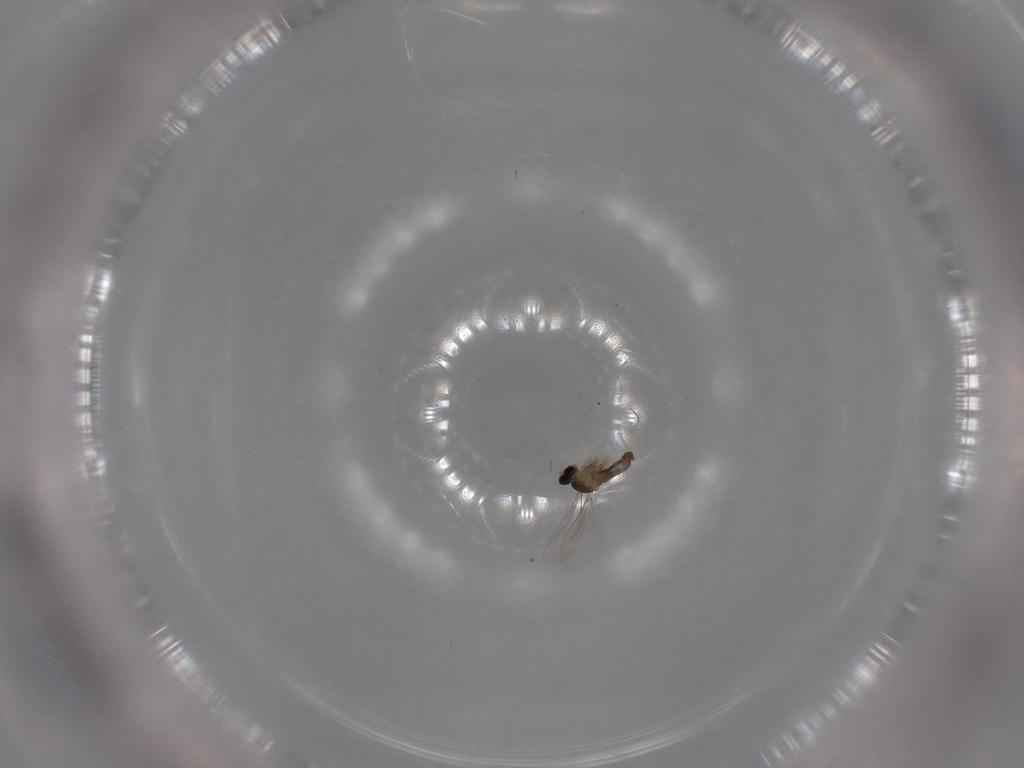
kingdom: Animalia
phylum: Arthropoda
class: Insecta
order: Diptera
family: Cecidomyiidae
